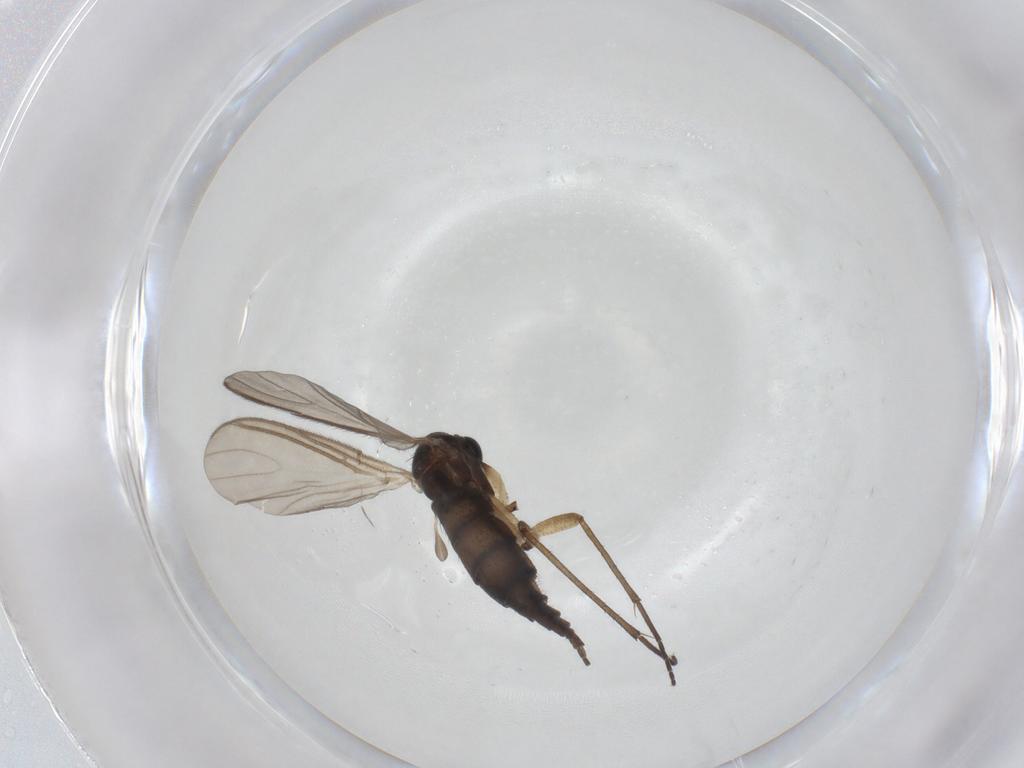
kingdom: Animalia
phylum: Arthropoda
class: Insecta
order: Diptera
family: Sciaridae
